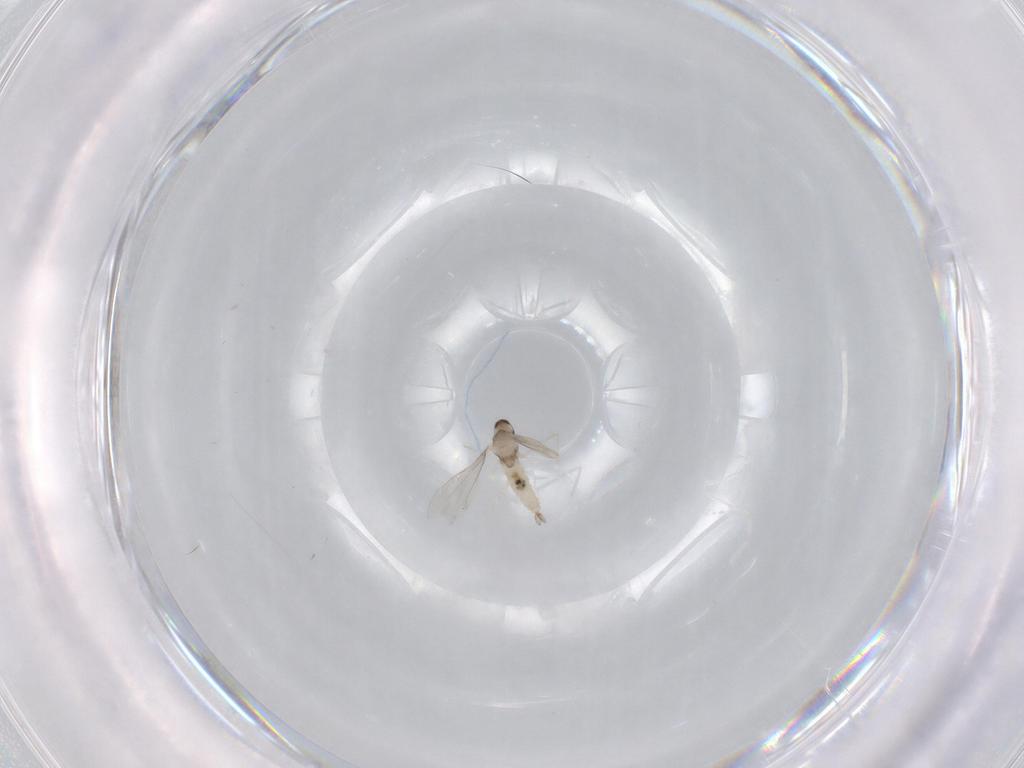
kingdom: Animalia
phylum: Arthropoda
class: Insecta
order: Diptera
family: Cecidomyiidae
